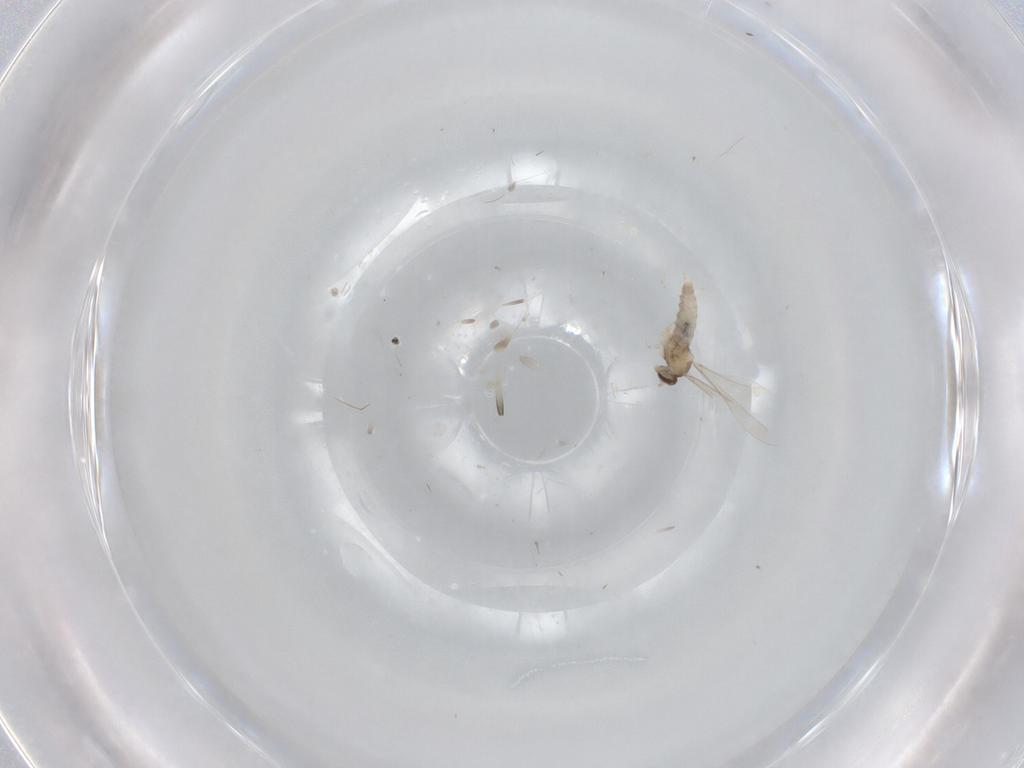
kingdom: Animalia
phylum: Arthropoda
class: Insecta
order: Diptera
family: Cecidomyiidae
